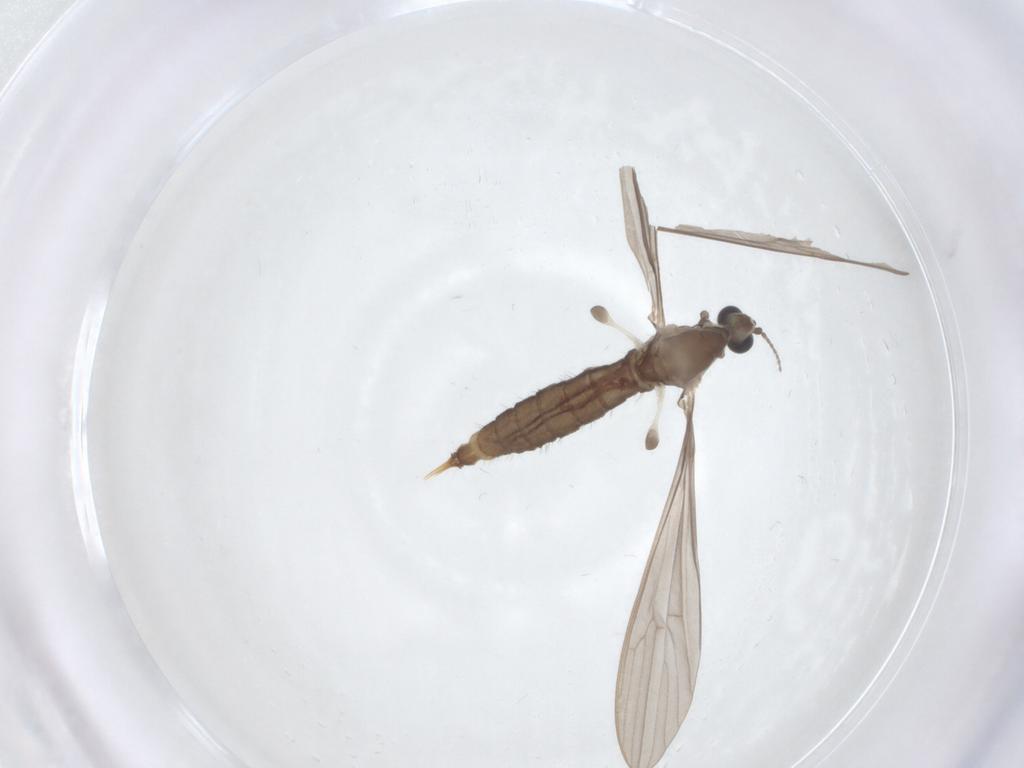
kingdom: Animalia
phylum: Arthropoda
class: Insecta
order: Diptera
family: Limoniidae
